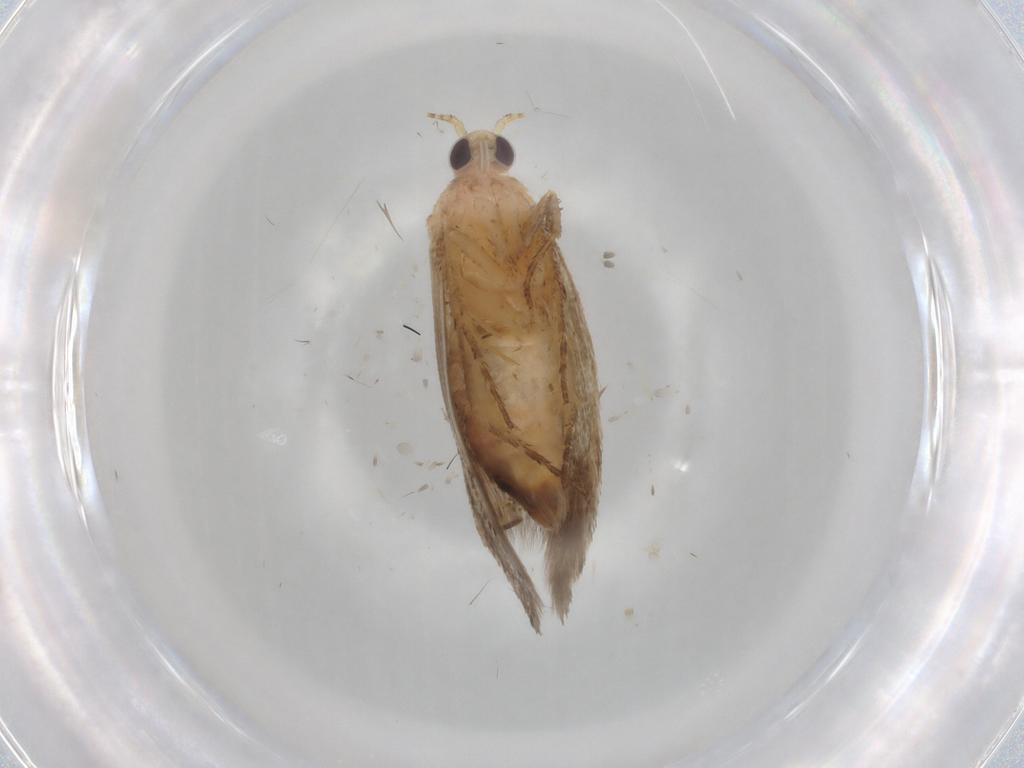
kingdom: Animalia
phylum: Arthropoda
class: Insecta
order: Lepidoptera
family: Plutellidae
